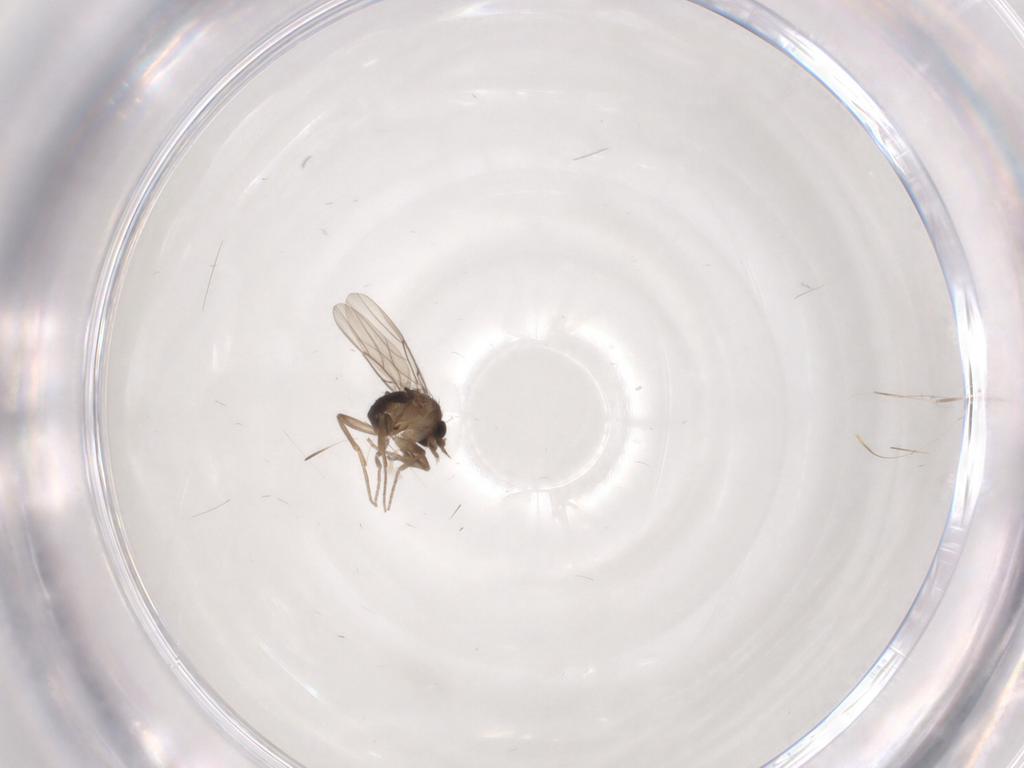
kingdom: Animalia
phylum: Arthropoda
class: Insecta
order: Diptera
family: Phoridae
